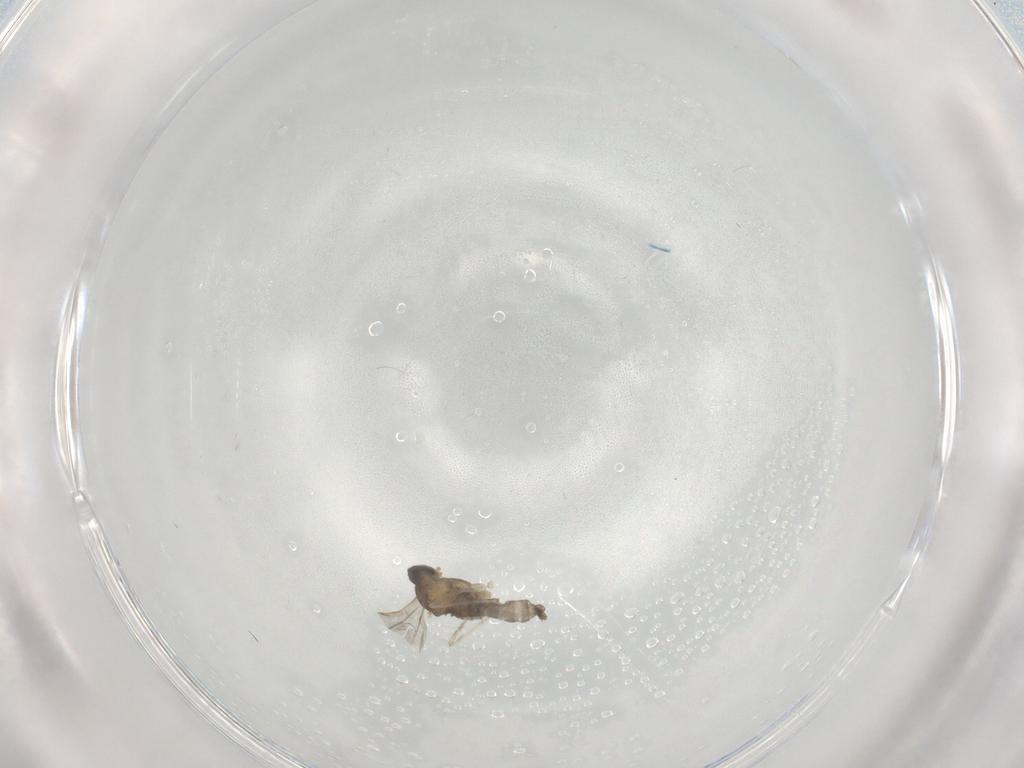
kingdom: Animalia
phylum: Arthropoda
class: Insecta
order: Diptera
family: Cecidomyiidae
